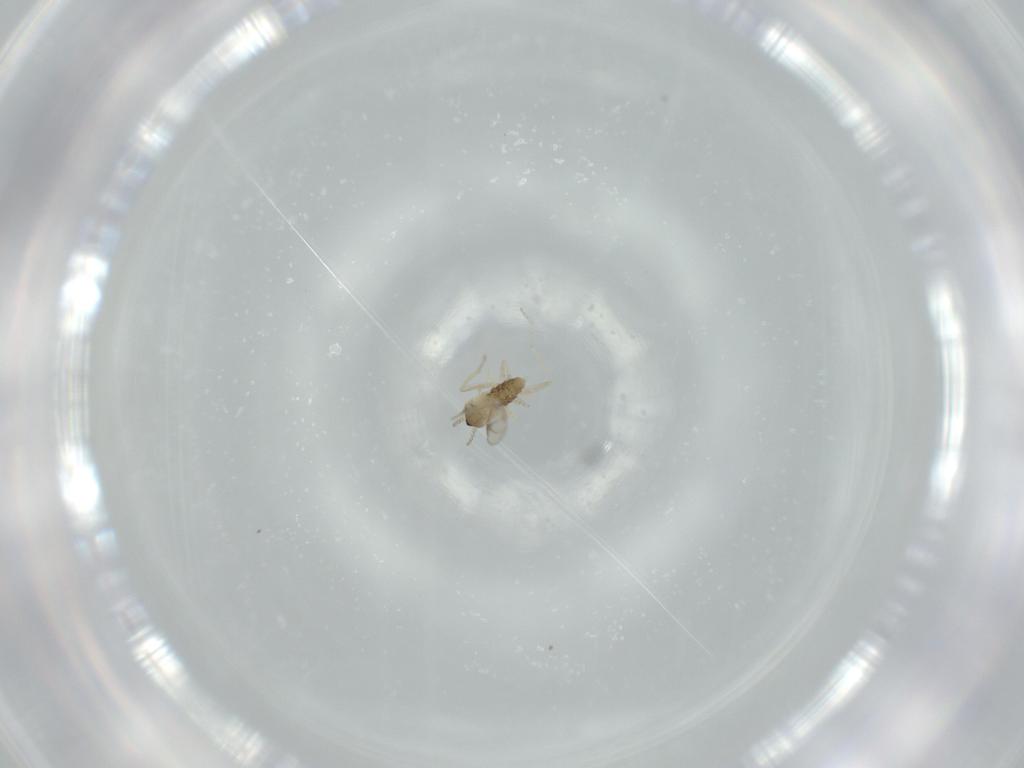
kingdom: Animalia
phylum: Arthropoda
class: Insecta
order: Diptera
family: Cecidomyiidae
